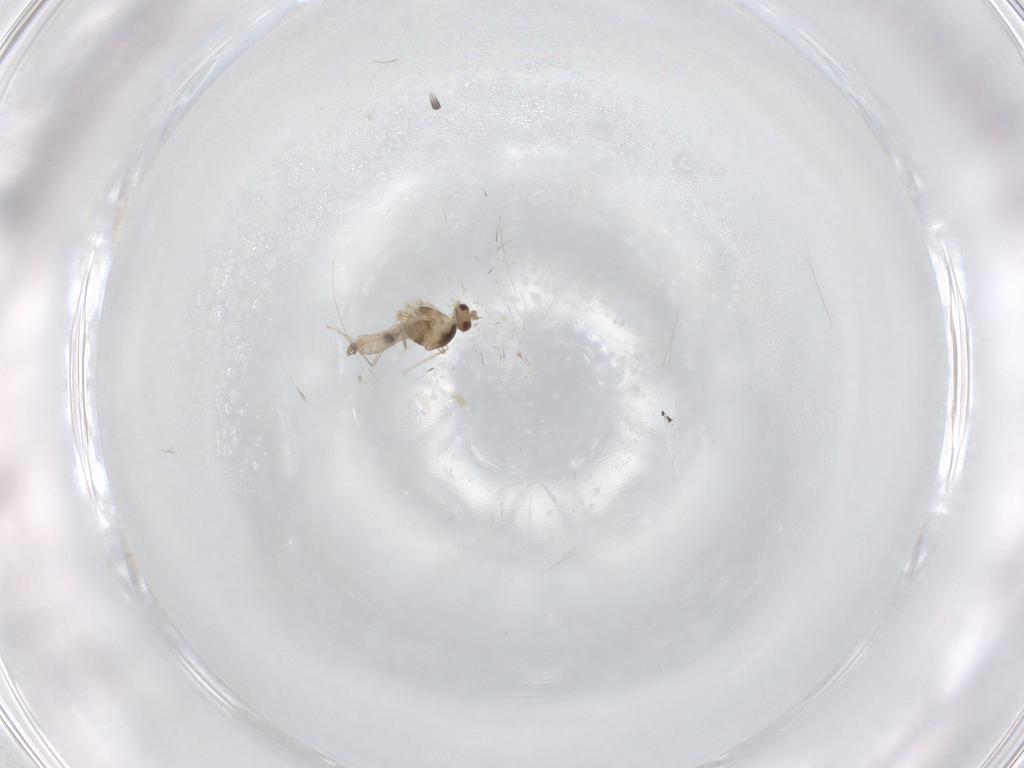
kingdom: Animalia
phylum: Arthropoda
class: Insecta
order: Diptera
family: Cecidomyiidae
